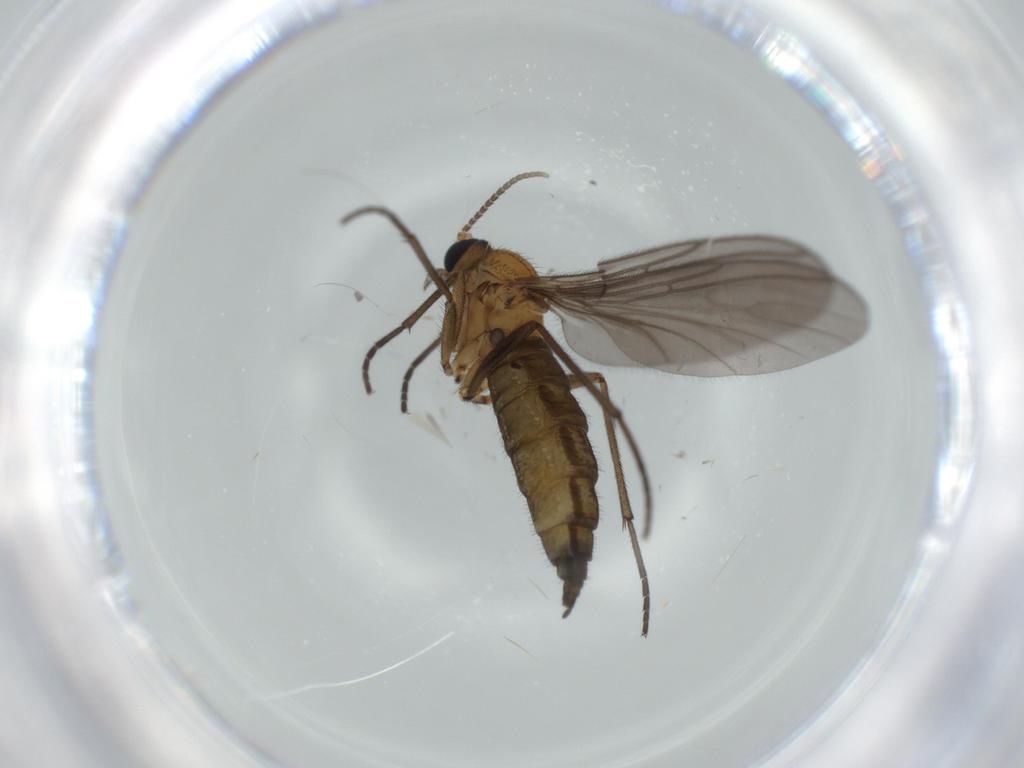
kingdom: Animalia
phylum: Arthropoda
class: Insecta
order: Diptera
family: Sciaridae
